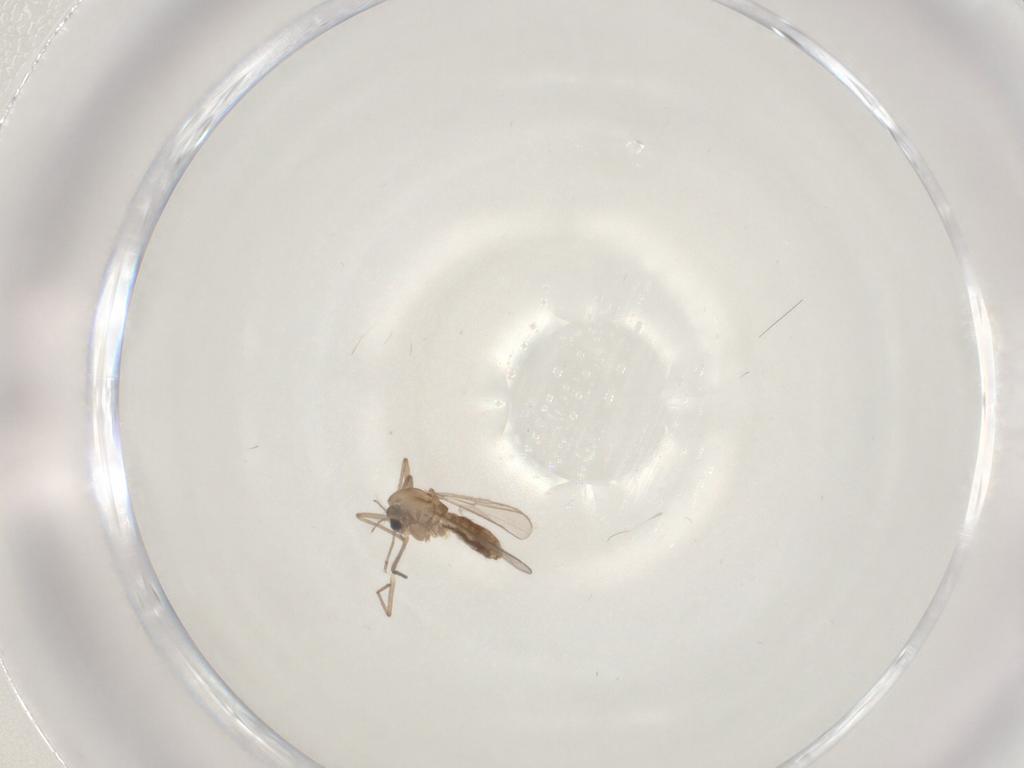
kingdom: Animalia
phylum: Arthropoda
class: Insecta
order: Diptera
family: Chironomidae
